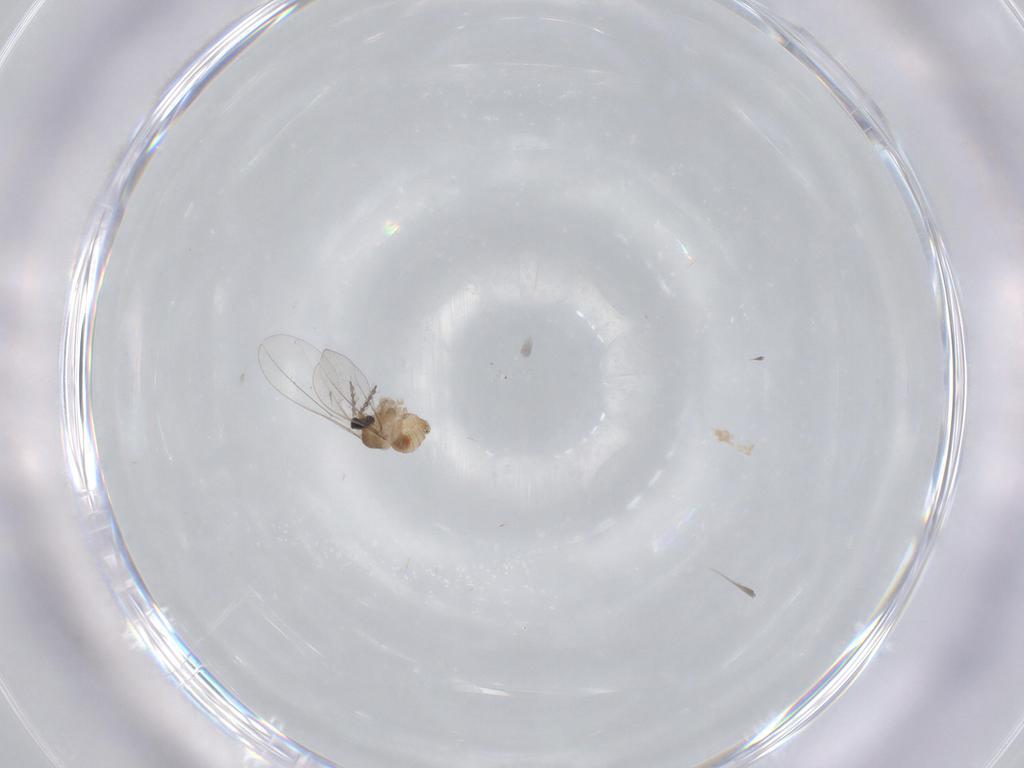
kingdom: Animalia
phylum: Arthropoda
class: Insecta
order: Diptera
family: Cecidomyiidae
